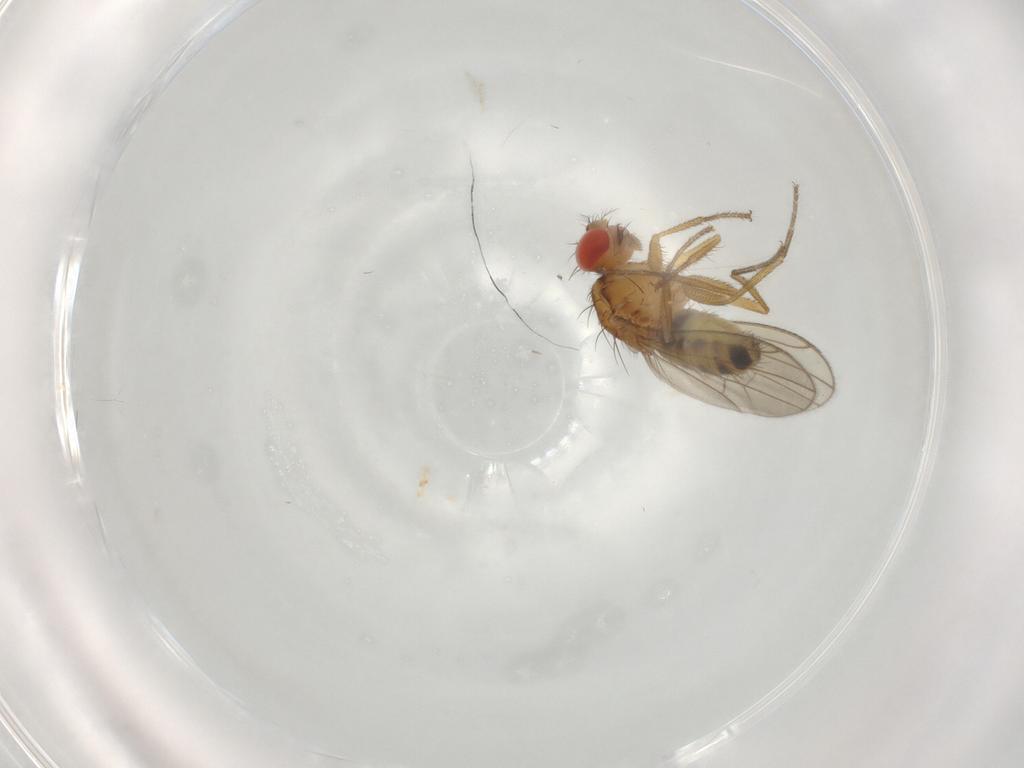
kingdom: Animalia
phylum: Arthropoda
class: Insecta
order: Diptera
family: Drosophilidae
